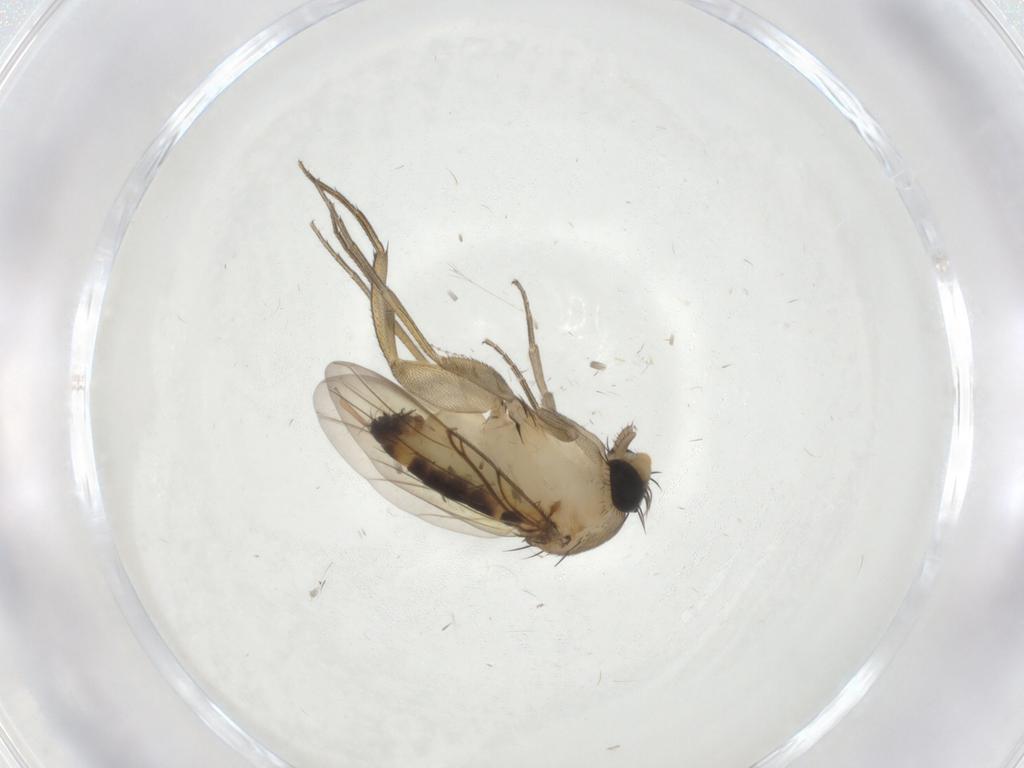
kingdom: Animalia
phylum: Arthropoda
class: Insecta
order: Diptera
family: Phoridae
